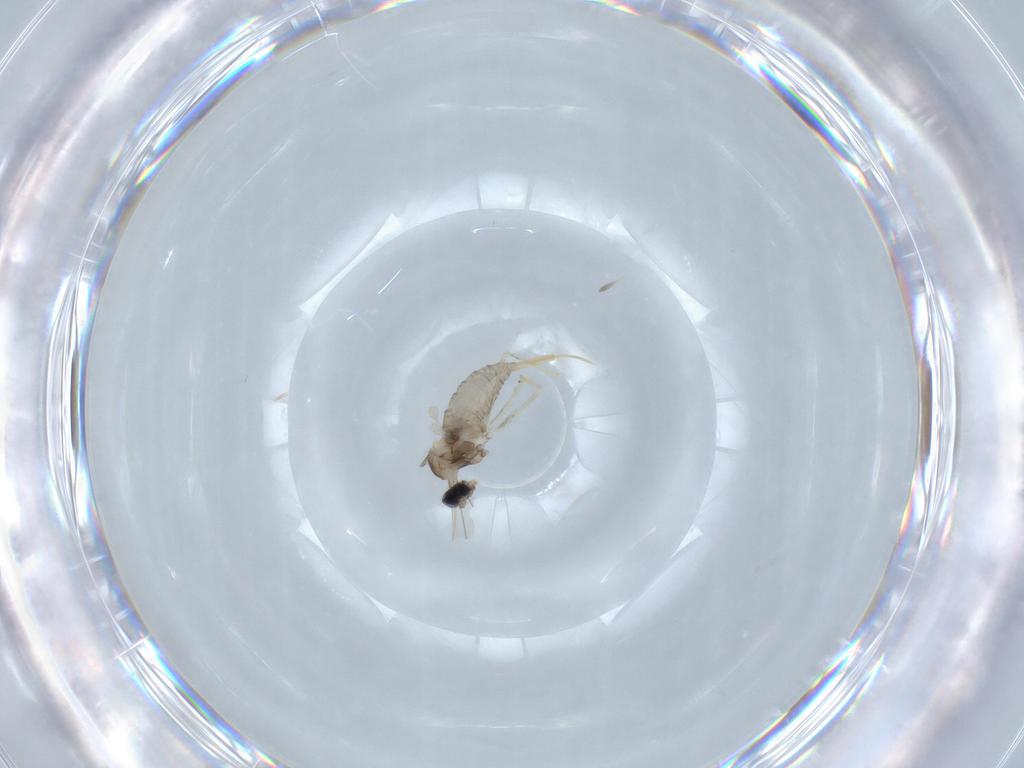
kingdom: Animalia
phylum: Arthropoda
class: Insecta
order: Diptera
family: Cecidomyiidae
